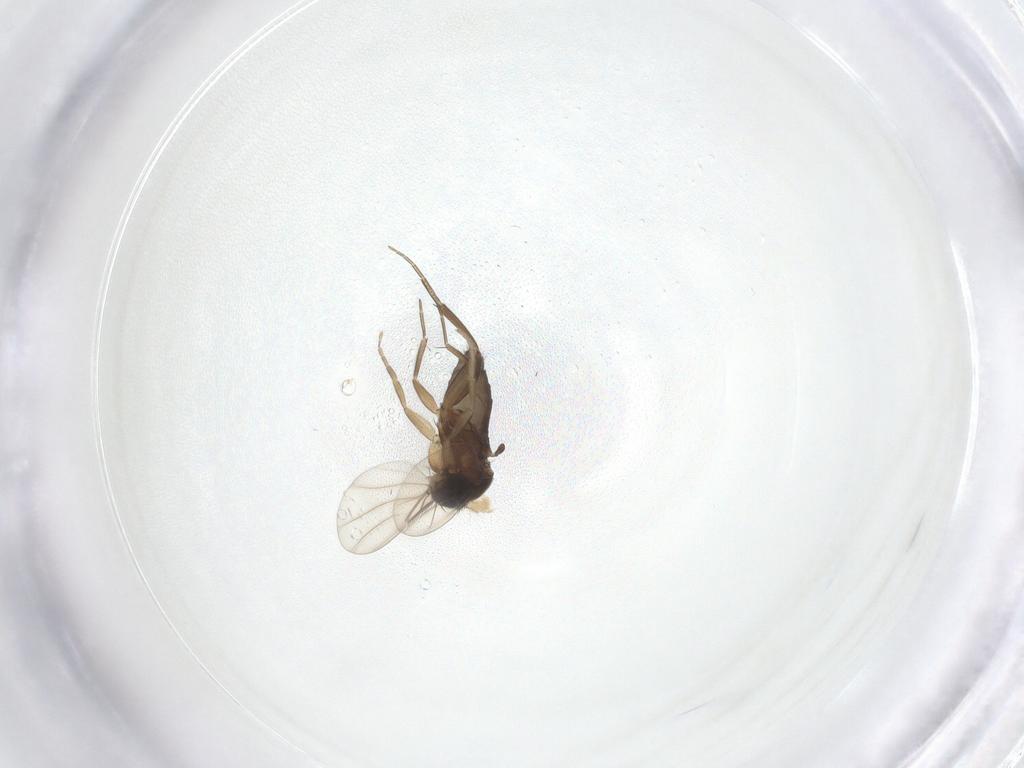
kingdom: Animalia
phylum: Arthropoda
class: Insecta
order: Diptera
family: Phoridae
